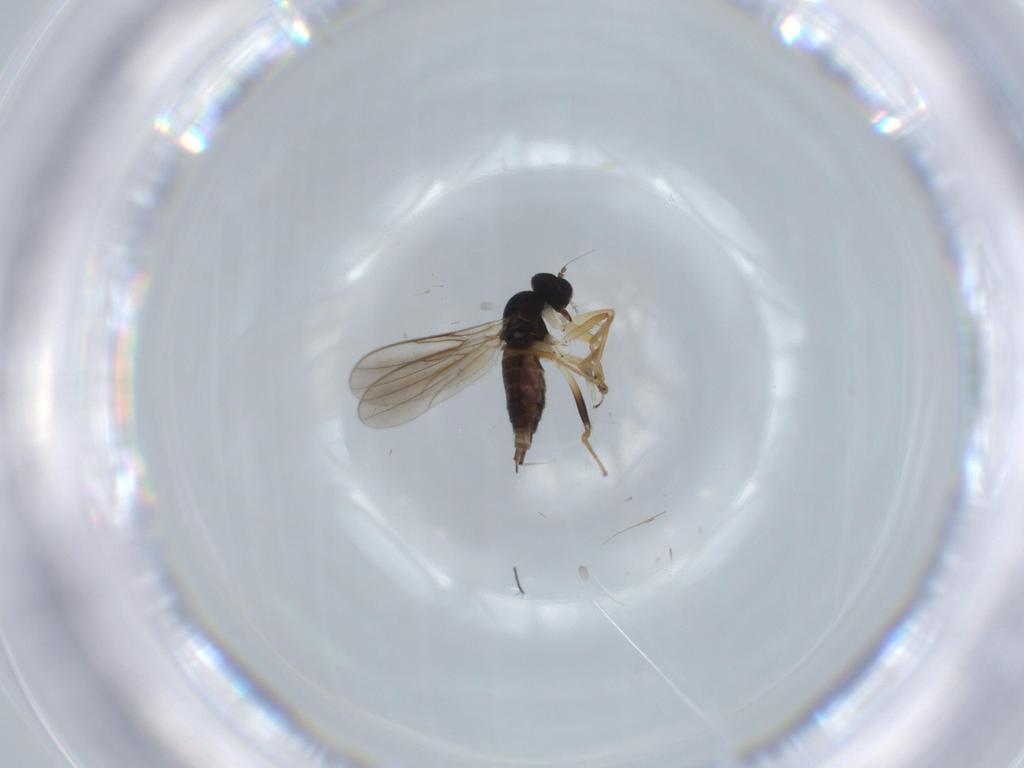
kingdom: Animalia
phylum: Arthropoda
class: Insecta
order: Diptera
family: Hybotidae
